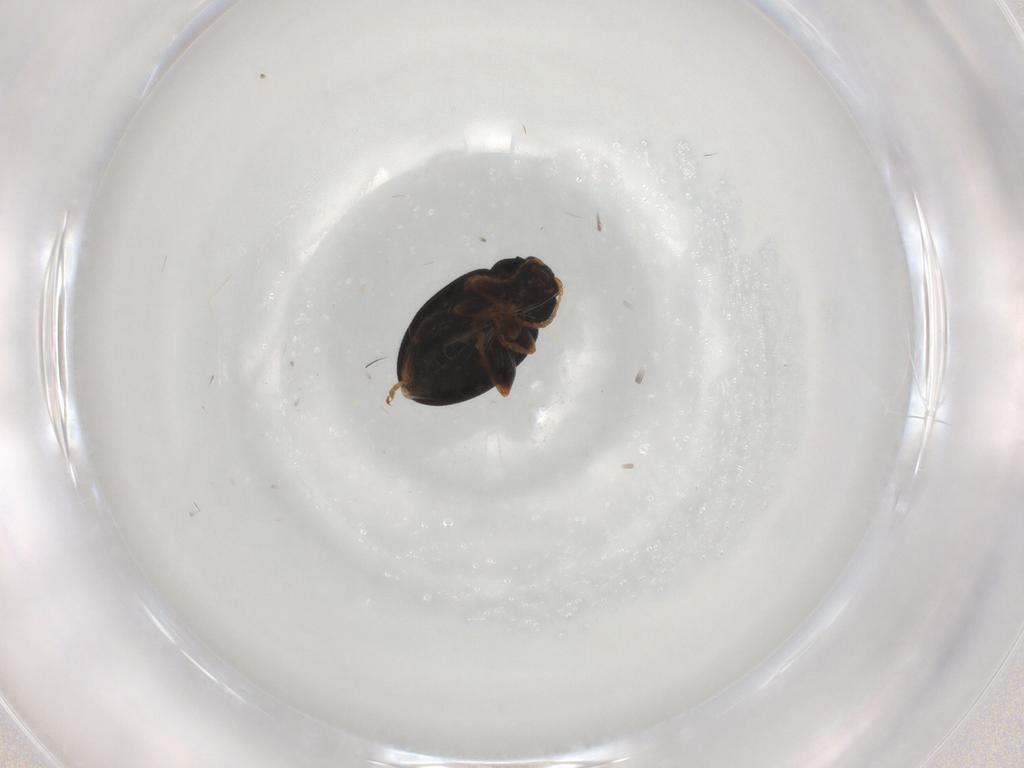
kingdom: Animalia
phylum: Arthropoda
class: Insecta
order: Coleoptera
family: Chrysomelidae
